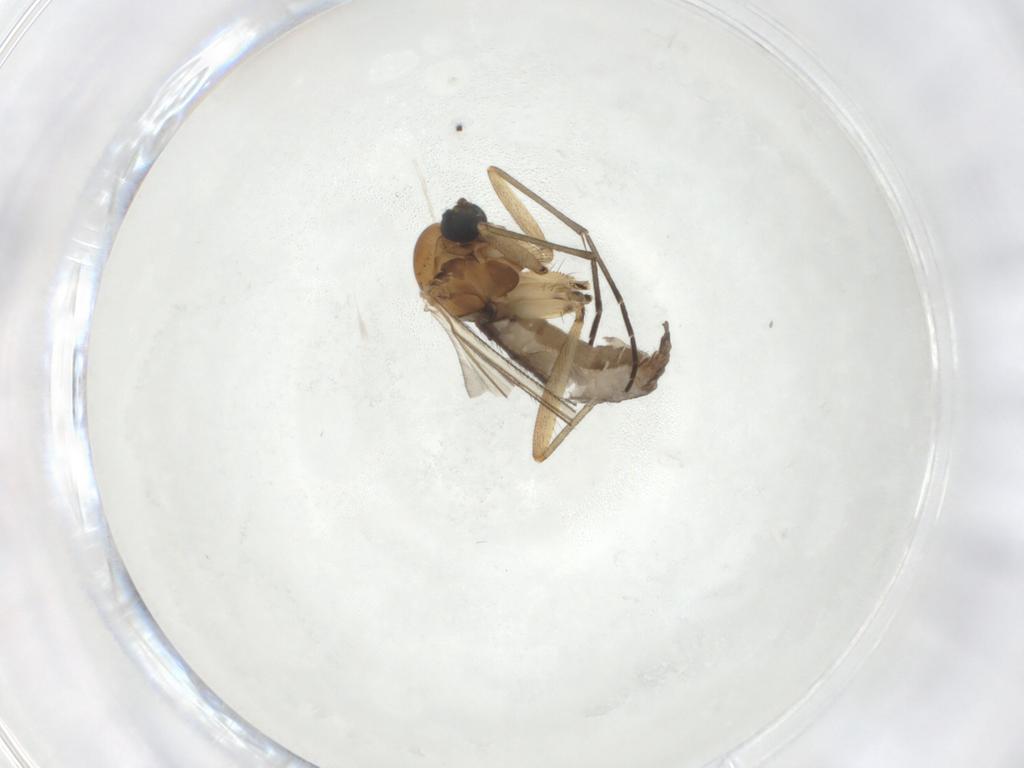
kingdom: Animalia
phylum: Arthropoda
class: Insecta
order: Diptera
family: Sciaridae
